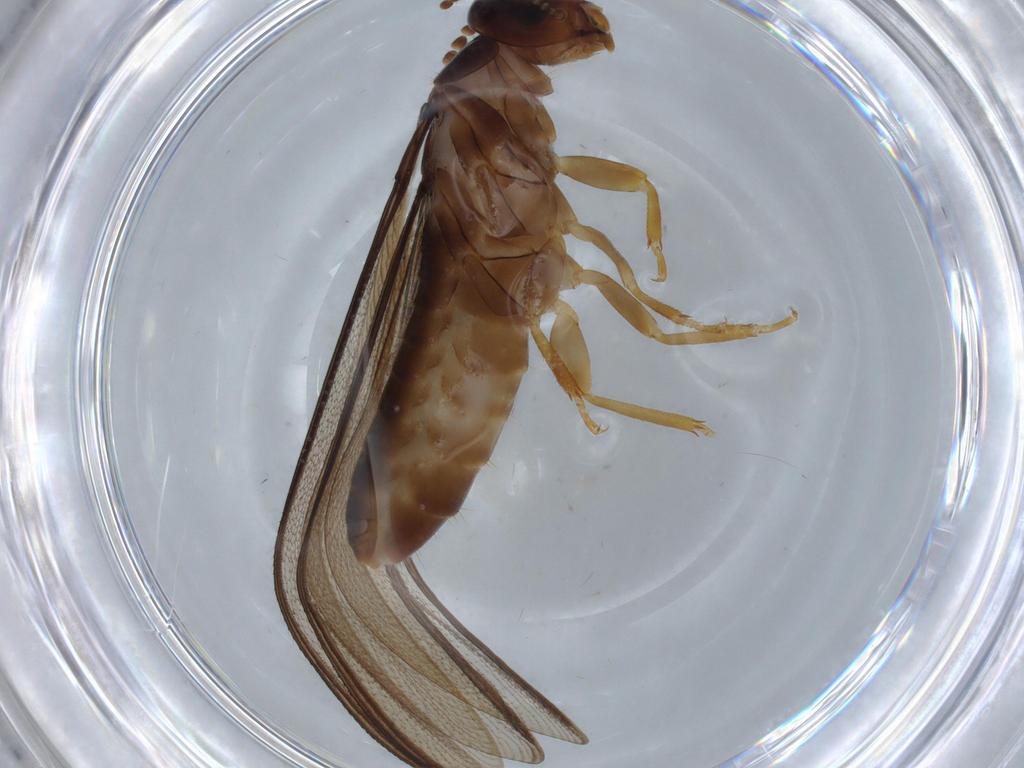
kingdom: Animalia
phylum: Arthropoda
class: Insecta
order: Blattodea
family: Kalotermitidae
